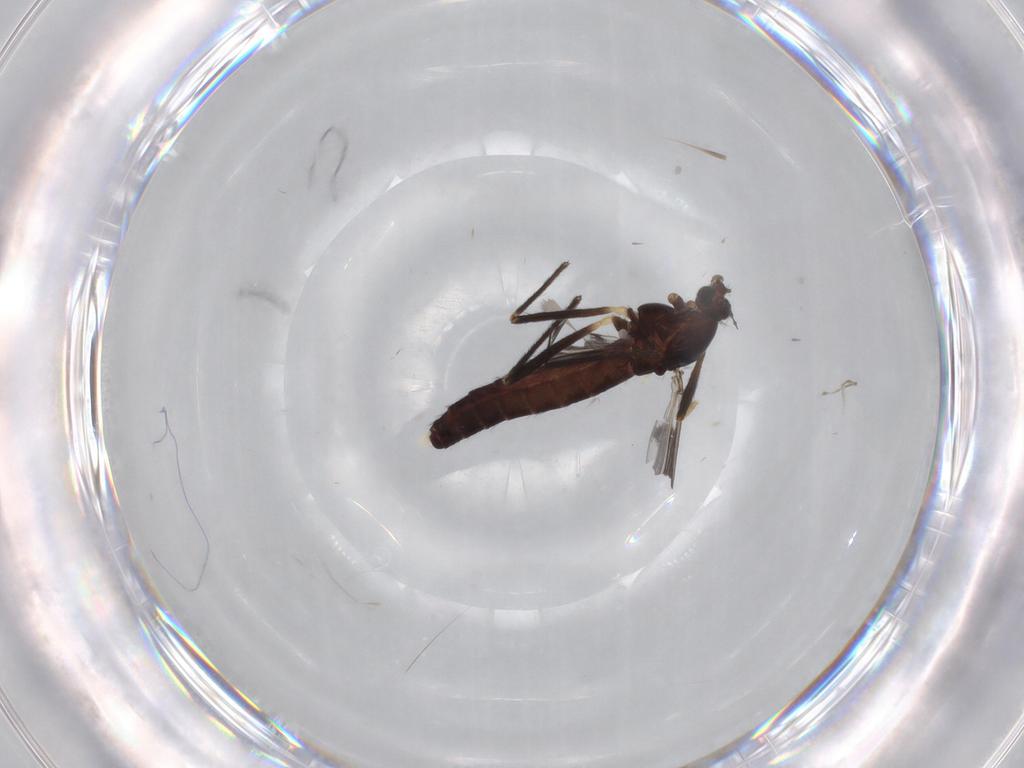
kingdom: Animalia
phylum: Arthropoda
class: Insecta
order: Diptera
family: Chironomidae
